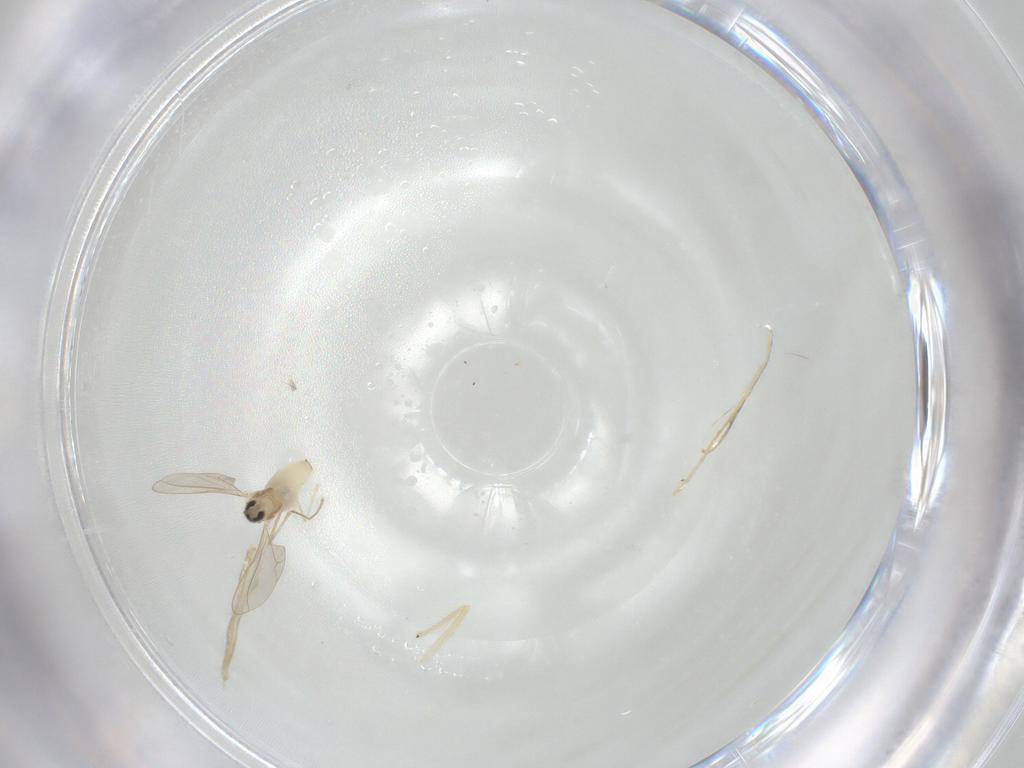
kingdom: Animalia
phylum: Arthropoda
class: Insecta
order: Diptera
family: Cecidomyiidae
